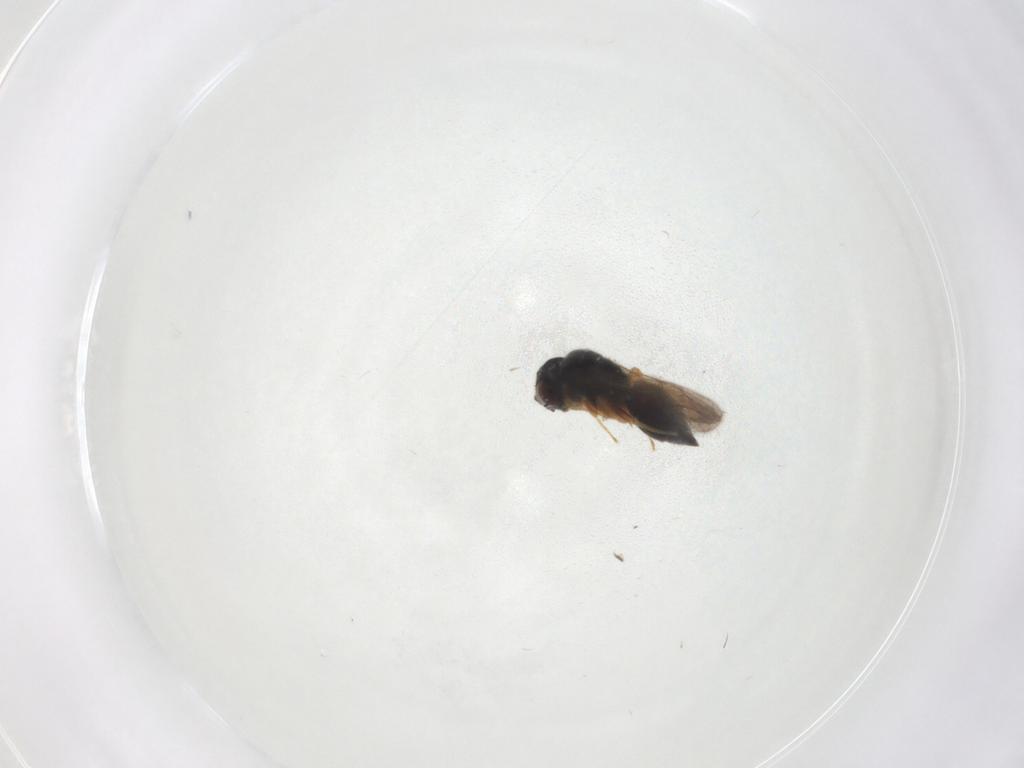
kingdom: Animalia
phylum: Arthropoda
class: Insecta
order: Hymenoptera
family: Ceraphronidae
